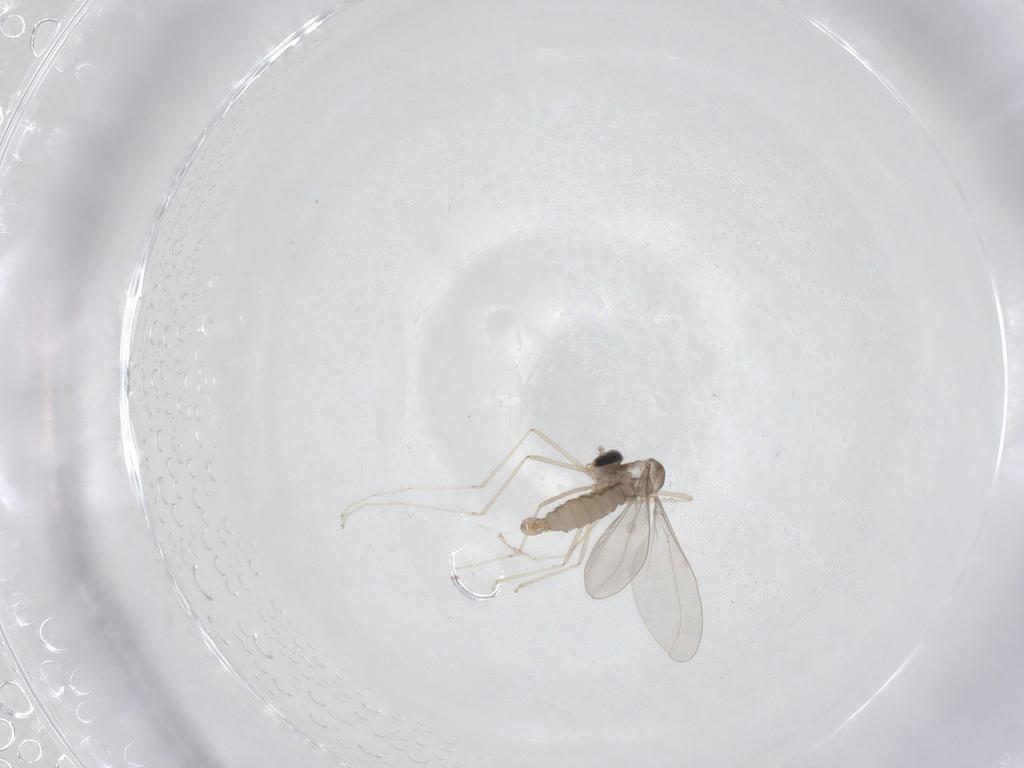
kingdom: Animalia
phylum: Arthropoda
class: Insecta
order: Diptera
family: Cecidomyiidae
